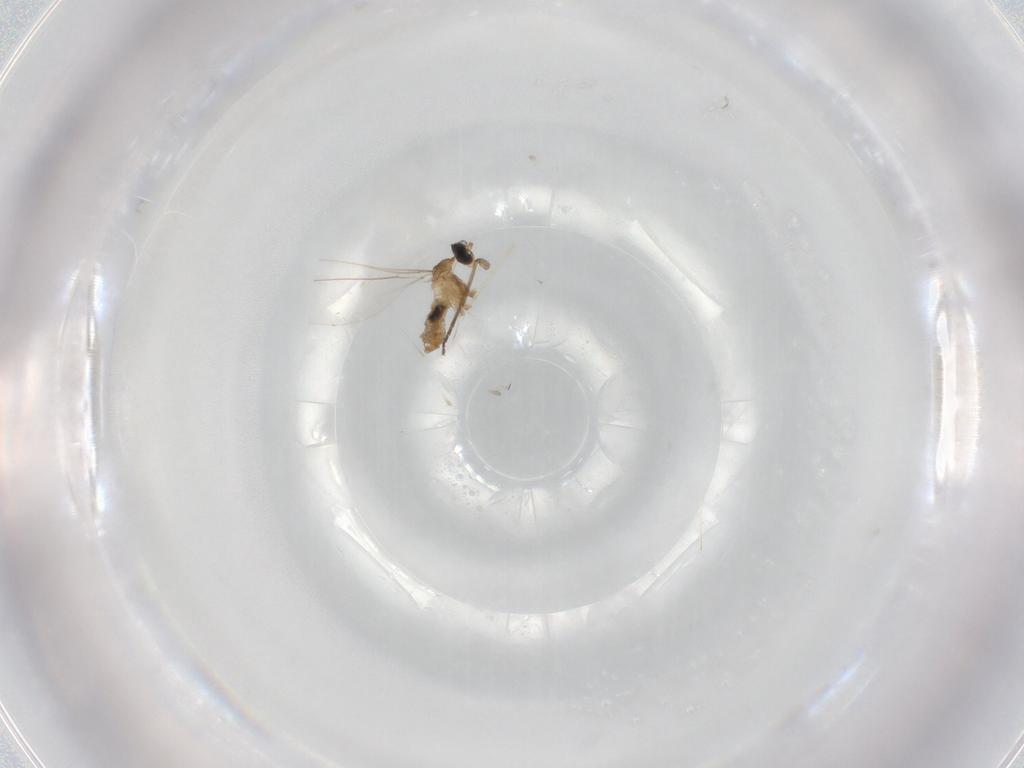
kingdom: Animalia
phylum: Arthropoda
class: Insecta
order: Diptera
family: Cecidomyiidae
